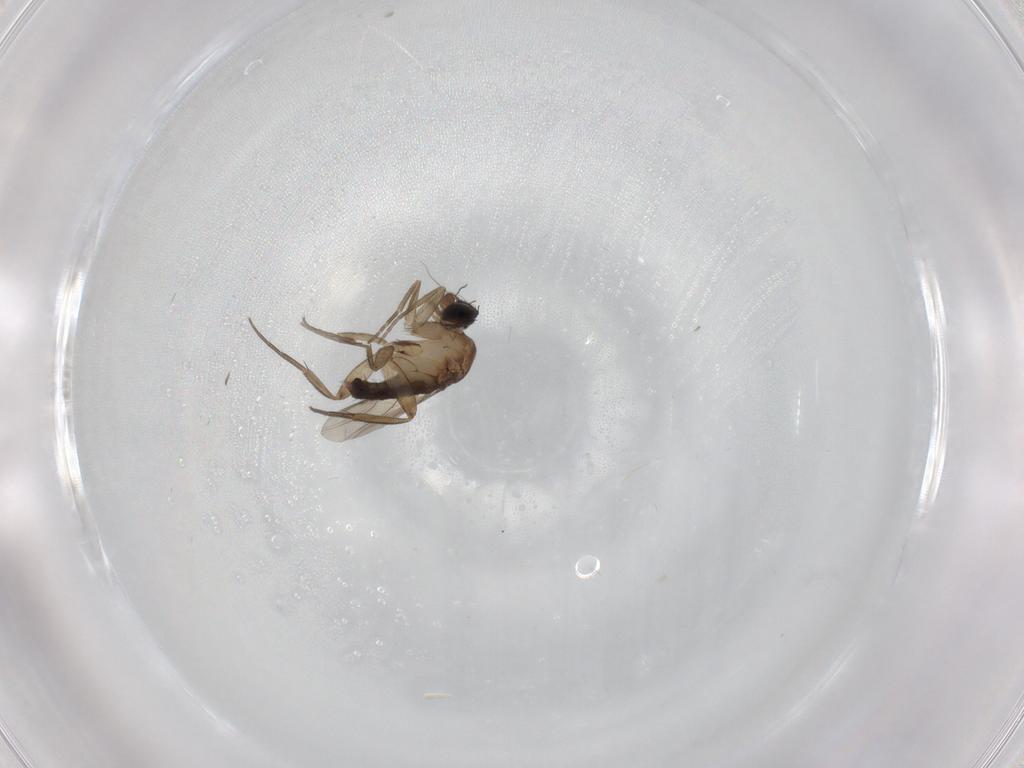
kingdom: Animalia
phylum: Arthropoda
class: Insecta
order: Diptera
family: Phoridae
